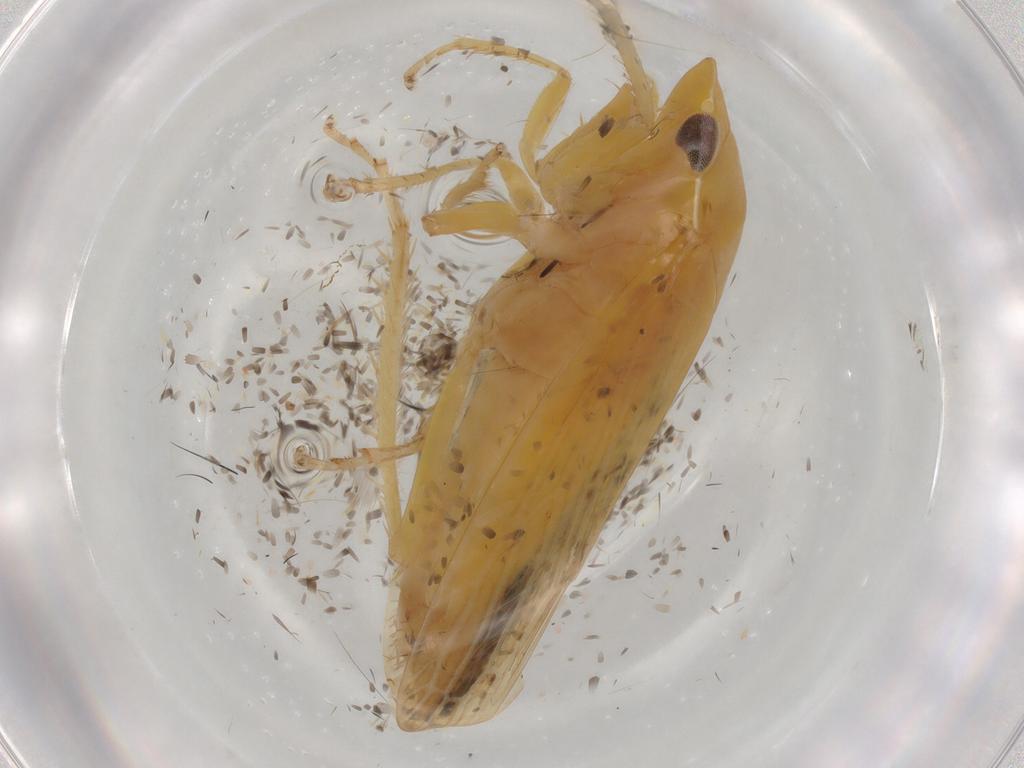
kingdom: Animalia
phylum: Arthropoda
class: Insecta
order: Hemiptera
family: Cicadellidae
